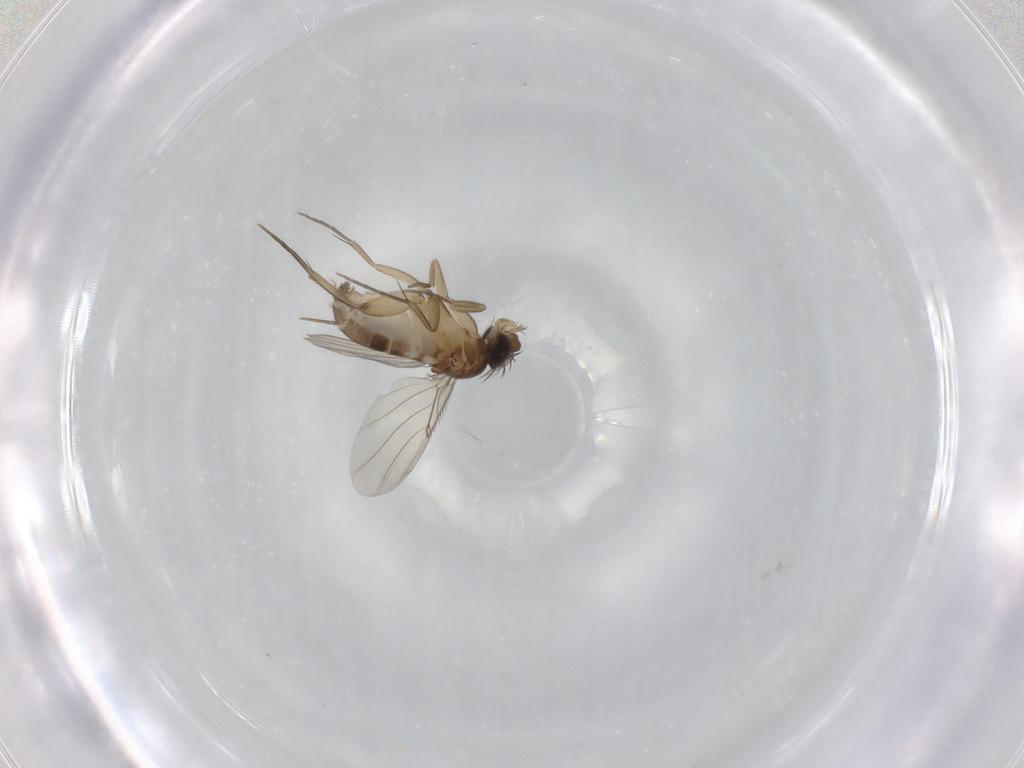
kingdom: Animalia
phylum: Arthropoda
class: Insecta
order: Diptera
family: Phoridae
